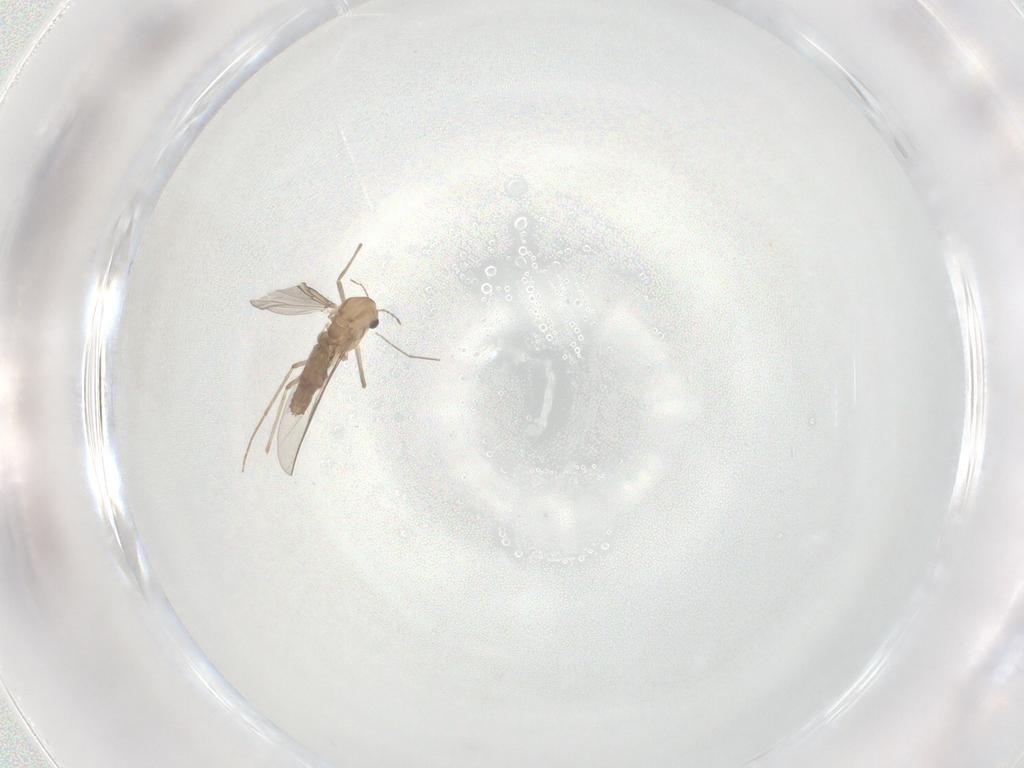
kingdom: Animalia
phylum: Arthropoda
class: Insecta
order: Diptera
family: Chironomidae
